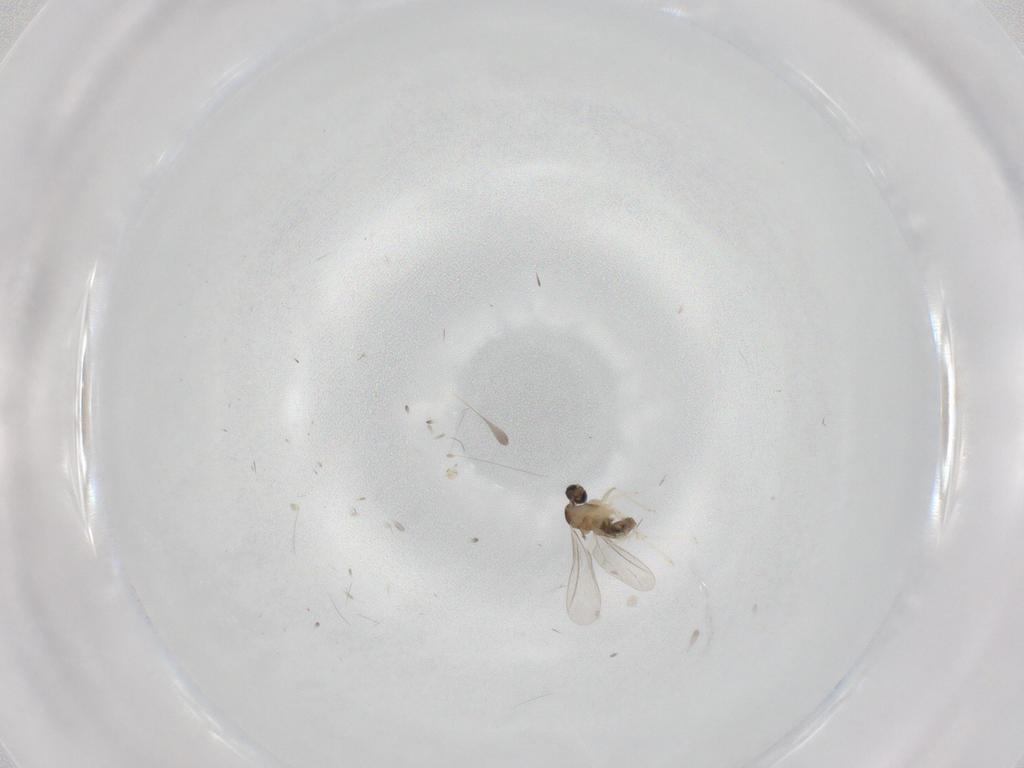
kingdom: Animalia
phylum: Arthropoda
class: Insecta
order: Diptera
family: Cecidomyiidae
